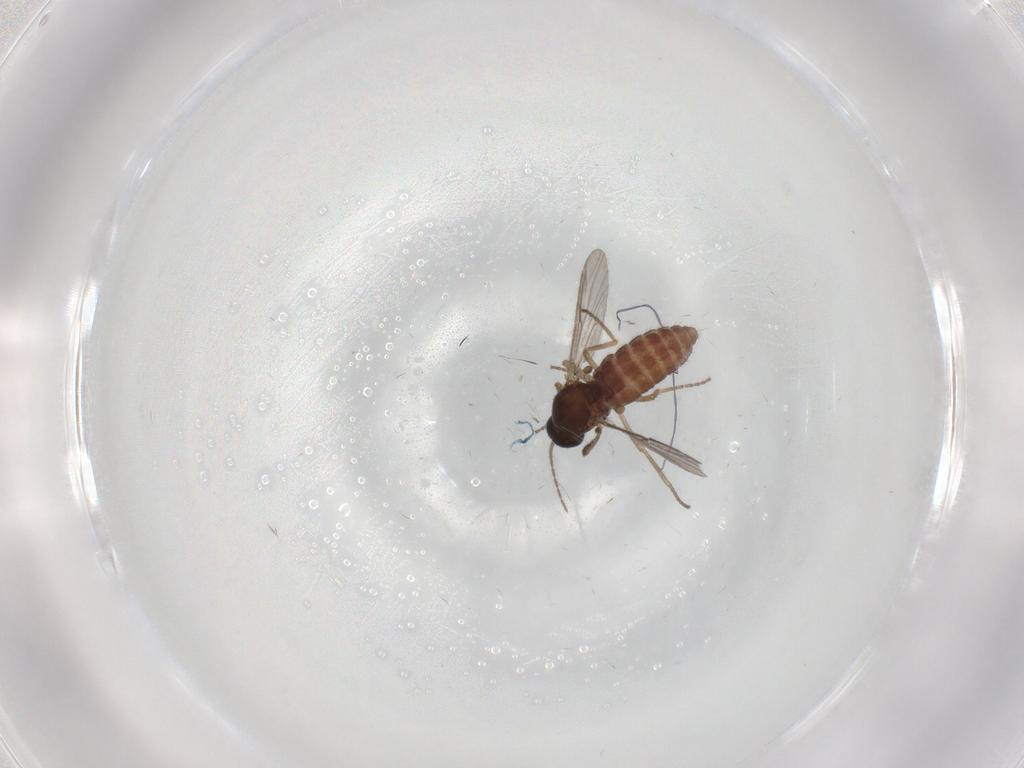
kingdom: Animalia
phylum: Arthropoda
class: Insecta
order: Diptera
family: Ceratopogonidae
